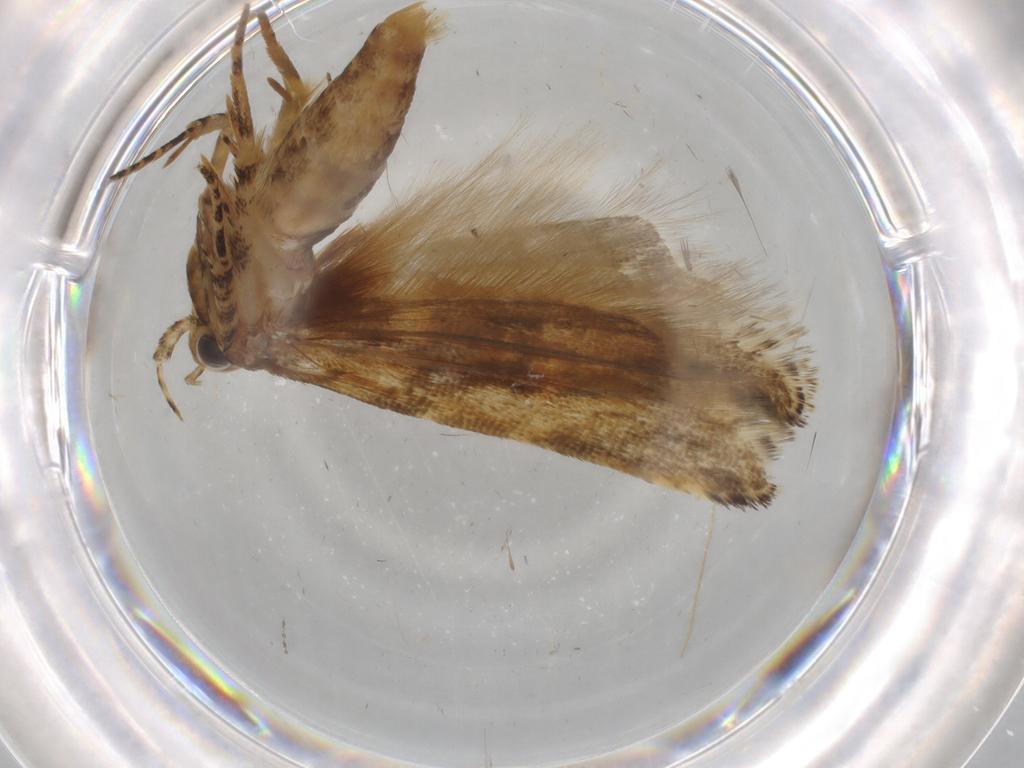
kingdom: Animalia
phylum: Arthropoda
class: Insecta
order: Lepidoptera
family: Gelechiidae
